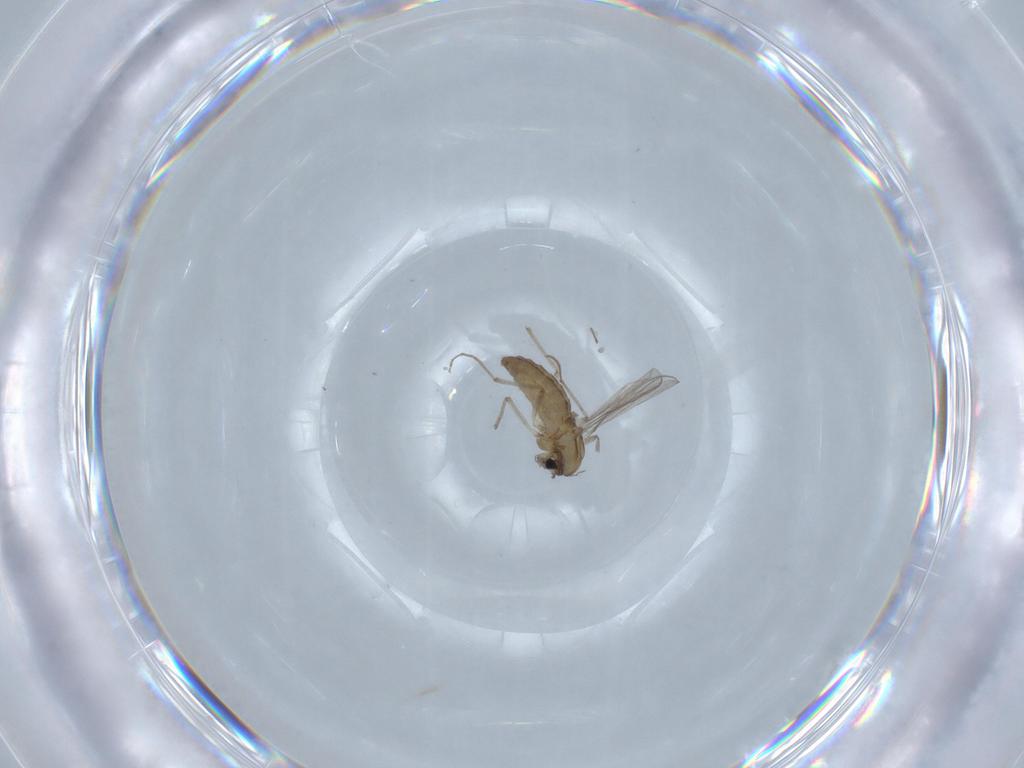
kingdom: Animalia
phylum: Arthropoda
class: Insecta
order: Diptera
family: Chironomidae
